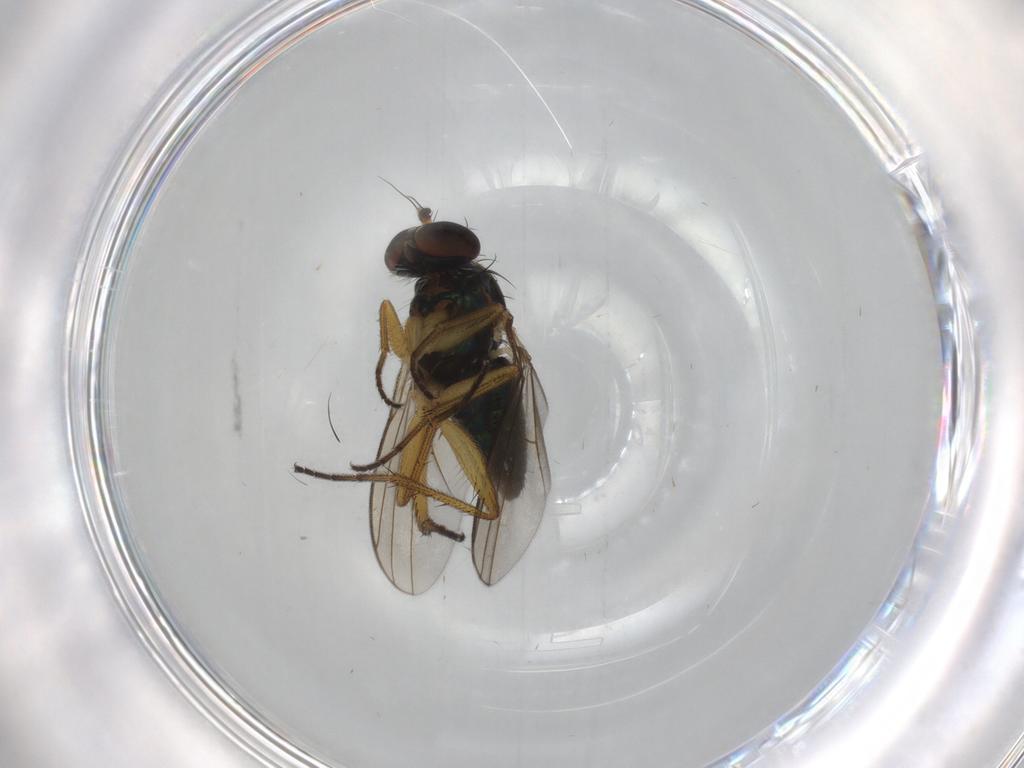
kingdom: Animalia
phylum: Arthropoda
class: Insecta
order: Diptera
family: Dolichopodidae
